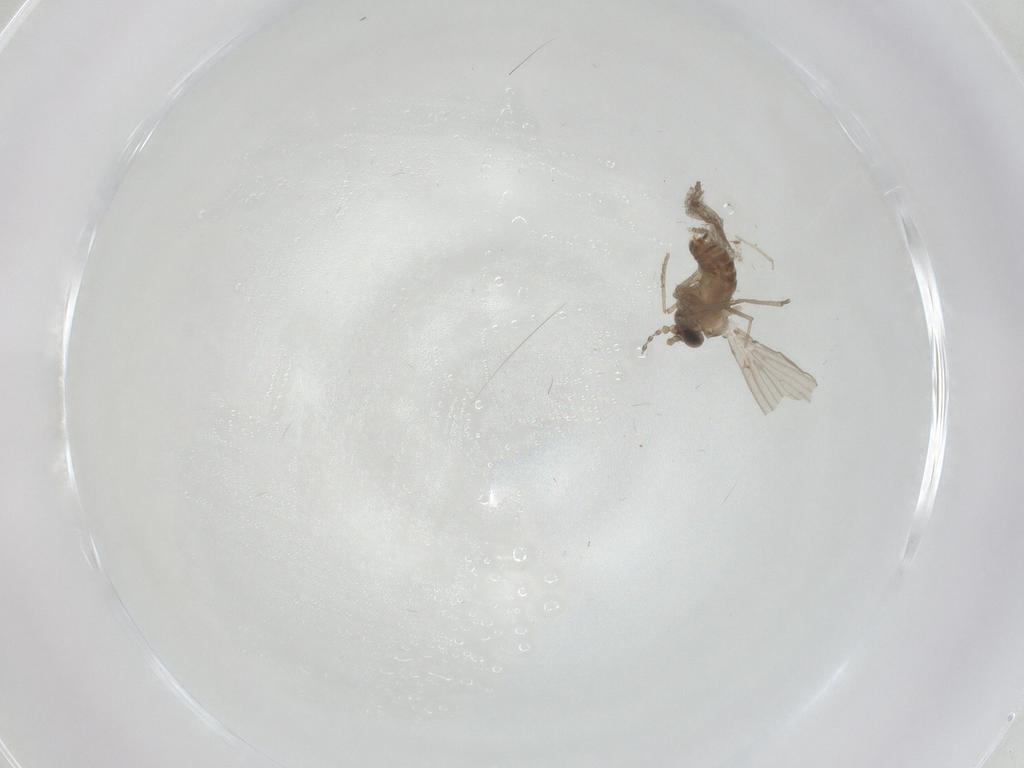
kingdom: Animalia
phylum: Arthropoda
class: Insecta
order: Diptera
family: Psychodidae
